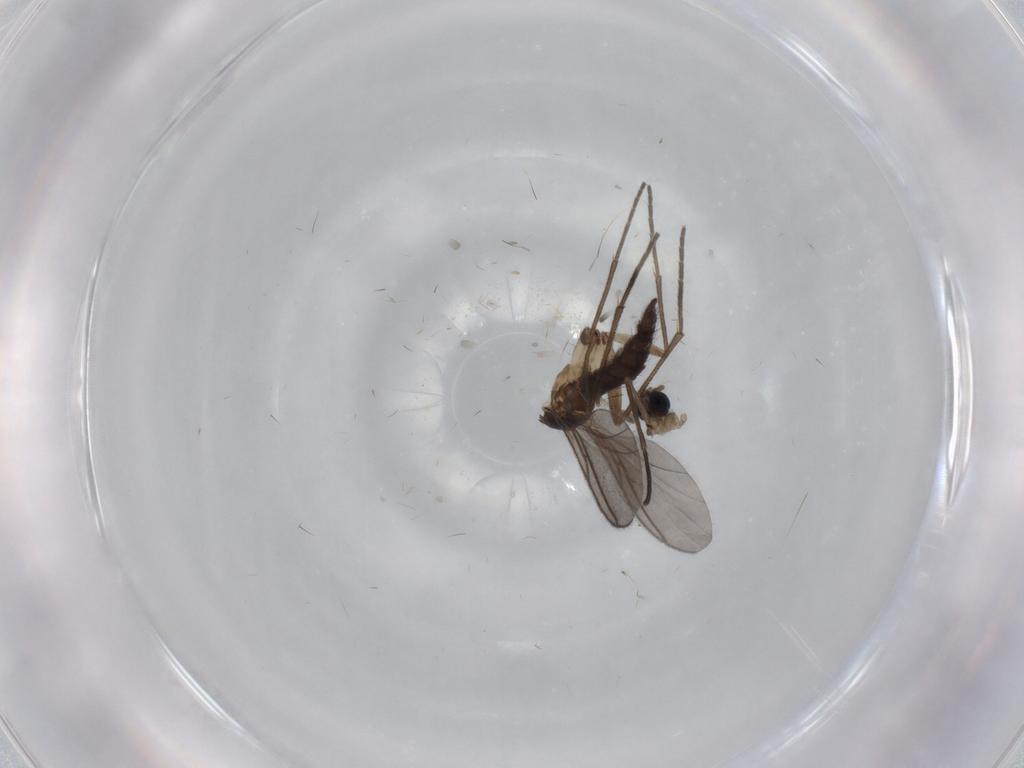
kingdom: Animalia
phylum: Arthropoda
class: Insecta
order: Diptera
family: Sciaridae
